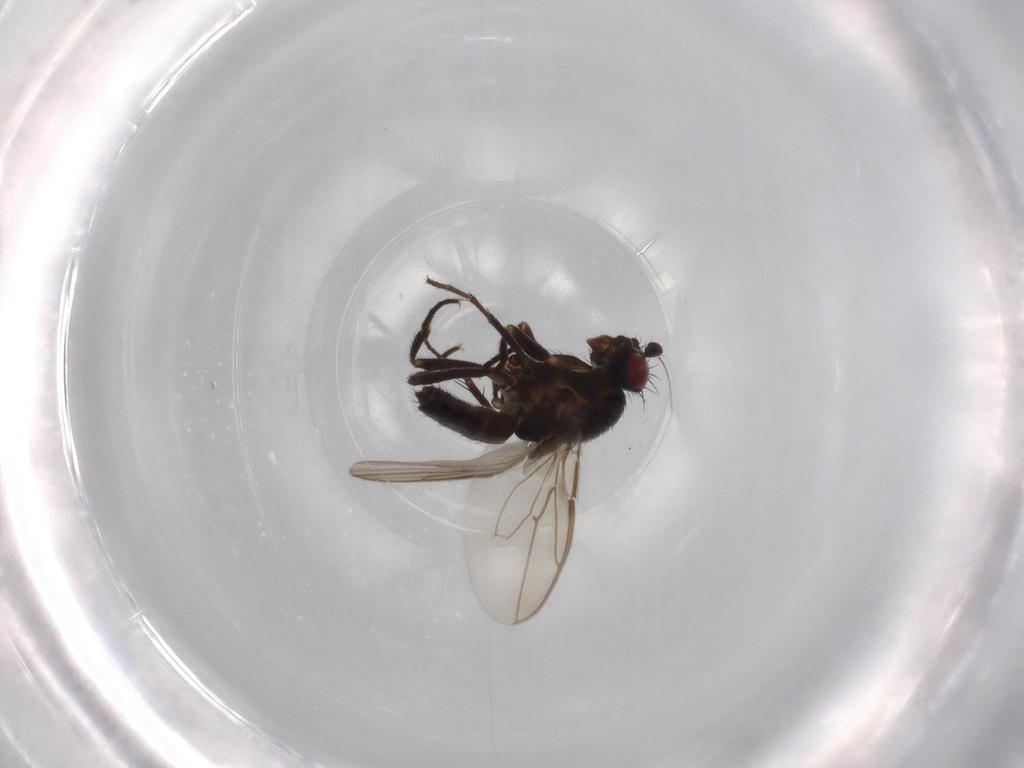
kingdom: Animalia
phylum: Arthropoda
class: Insecta
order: Diptera
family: Sphaeroceridae
